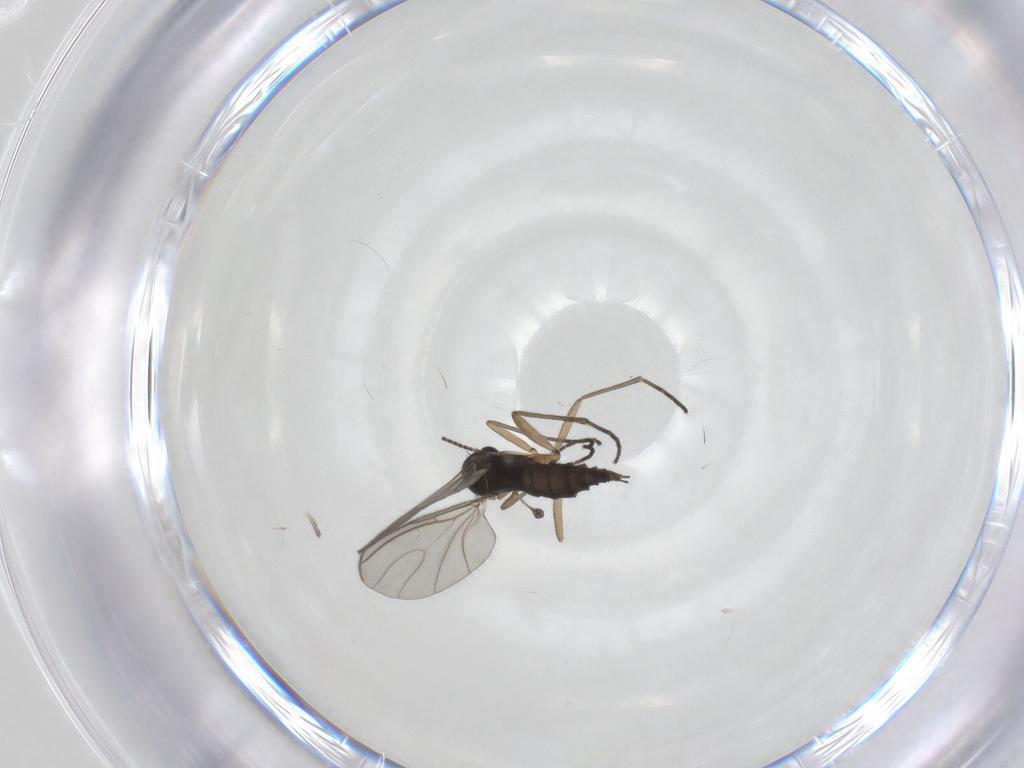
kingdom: Animalia
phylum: Arthropoda
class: Insecta
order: Diptera
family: Sciaridae
